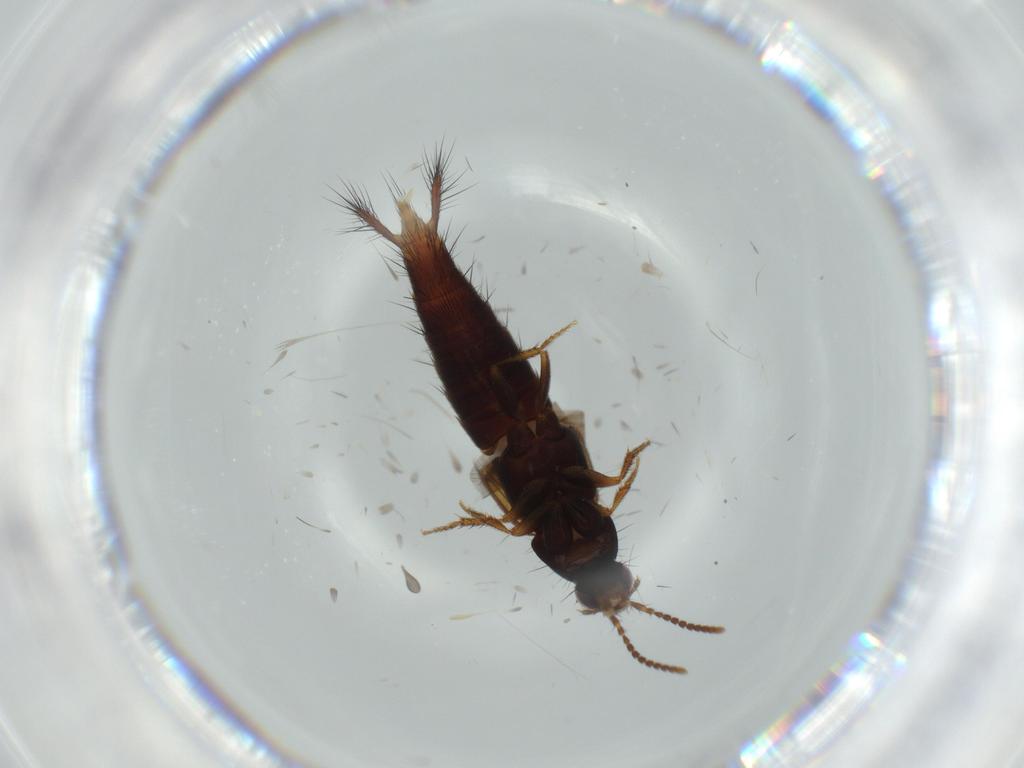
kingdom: Animalia
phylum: Arthropoda
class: Insecta
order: Coleoptera
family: Staphylinidae
